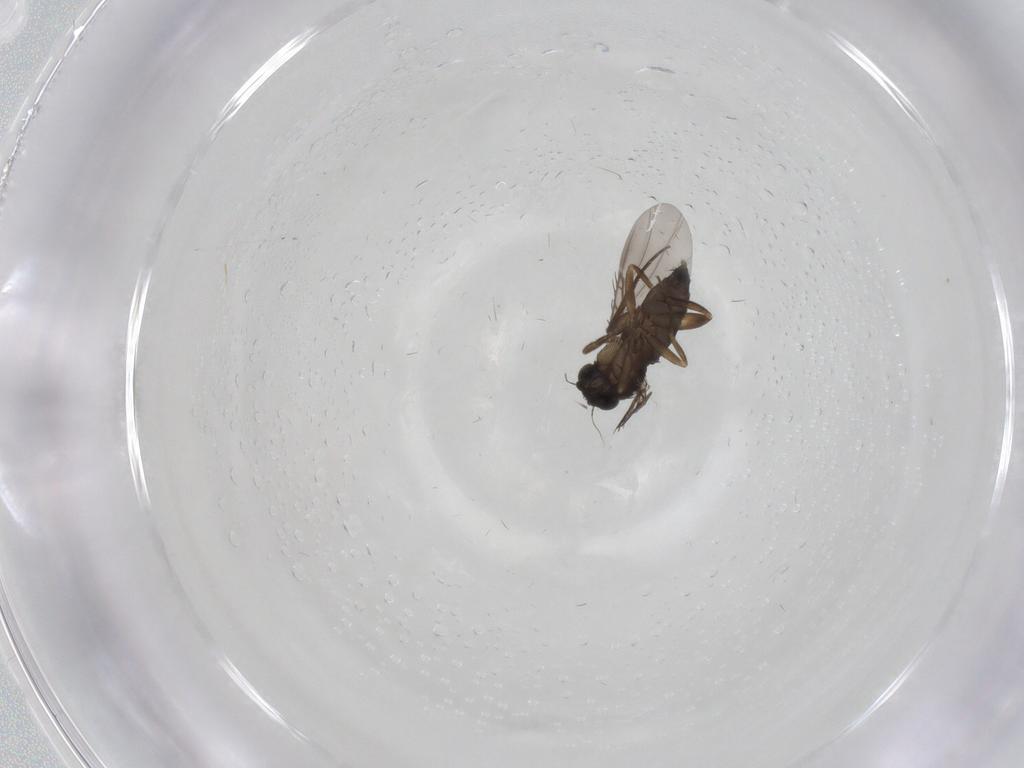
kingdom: Animalia
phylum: Arthropoda
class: Insecta
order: Diptera
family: Phoridae
